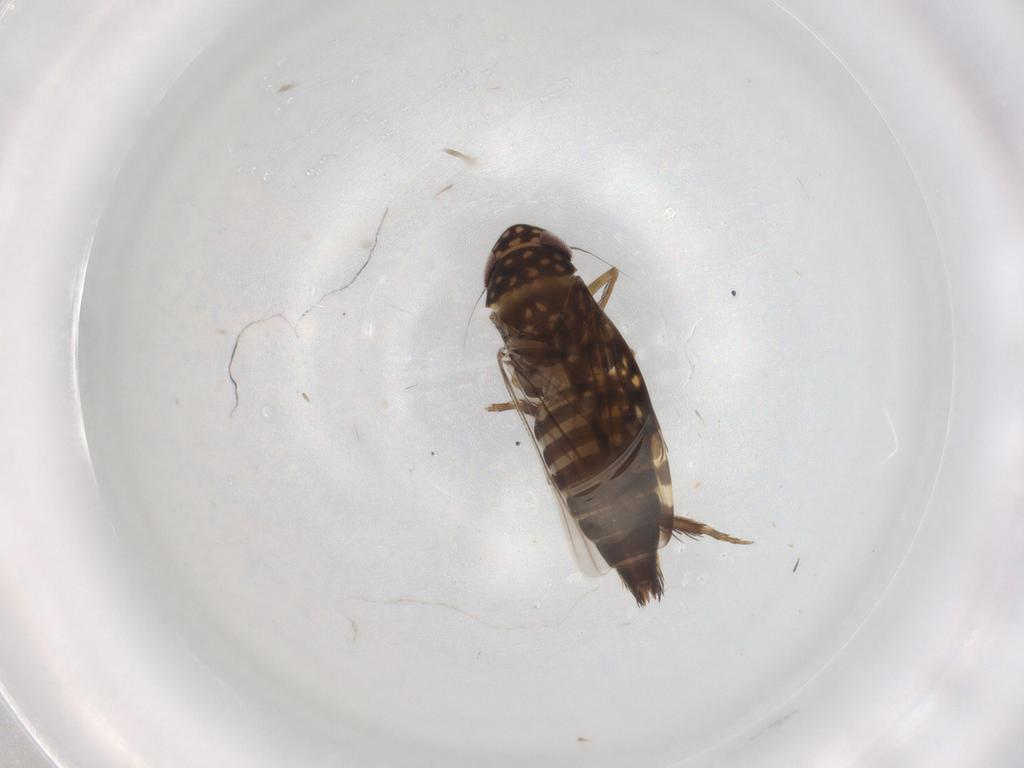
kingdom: Animalia
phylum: Arthropoda
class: Insecta
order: Hemiptera
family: Cicadellidae
